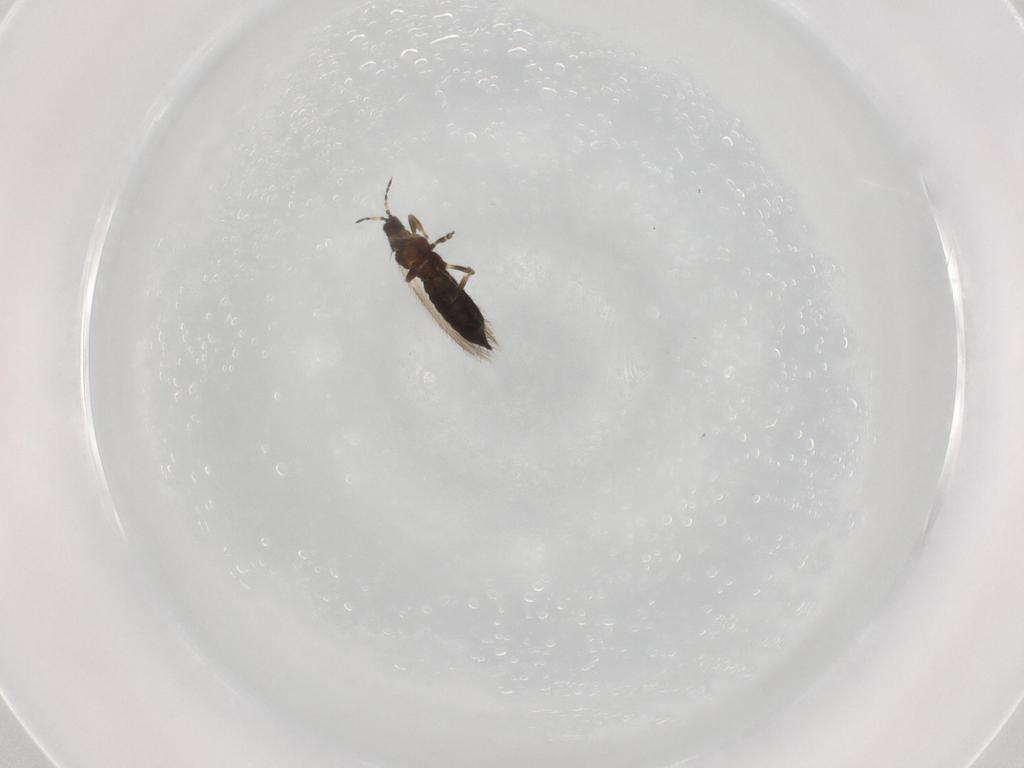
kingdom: Animalia
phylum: Arthropoda
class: Insecta
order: Thysanoptera
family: Thripidae
